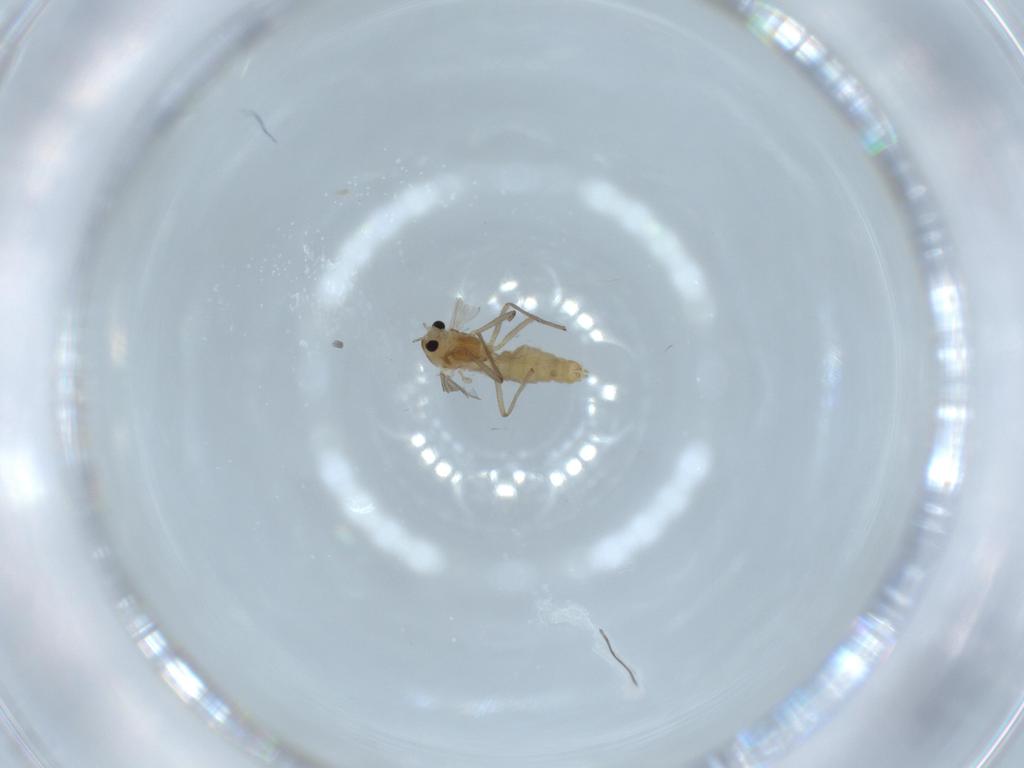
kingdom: Animalia
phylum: Arthropoda
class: Insecta
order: Diptera
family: Chironomidae
